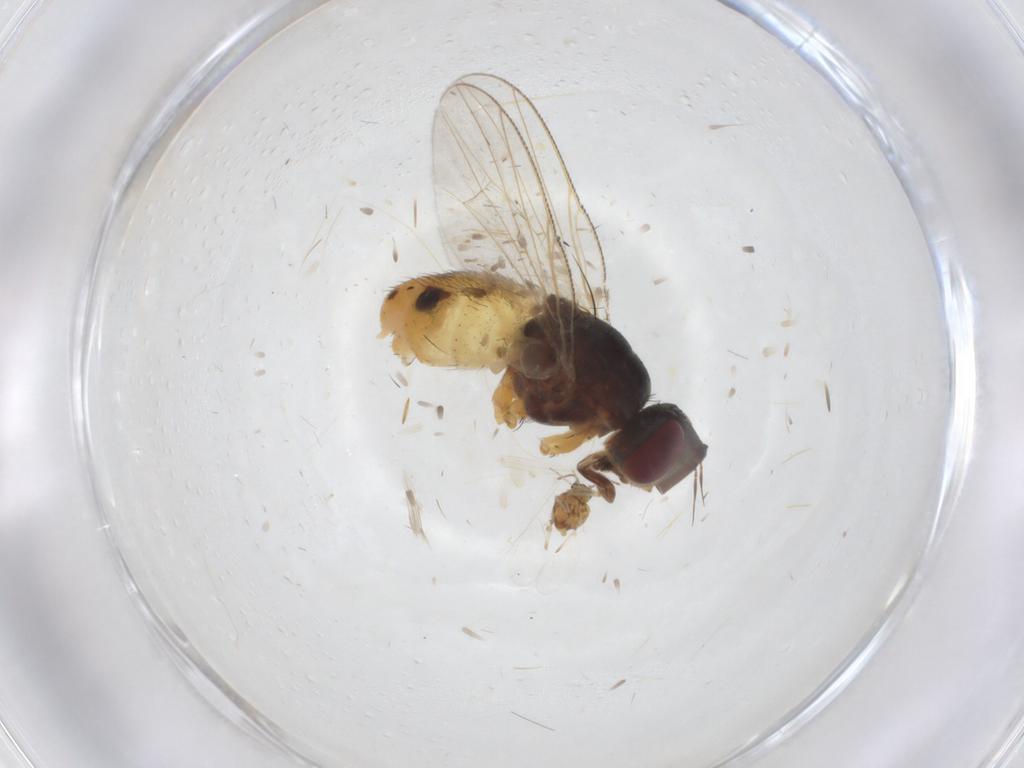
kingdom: Animalia
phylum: Arthropoda
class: Insecta
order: Diptera
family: Muscidae
